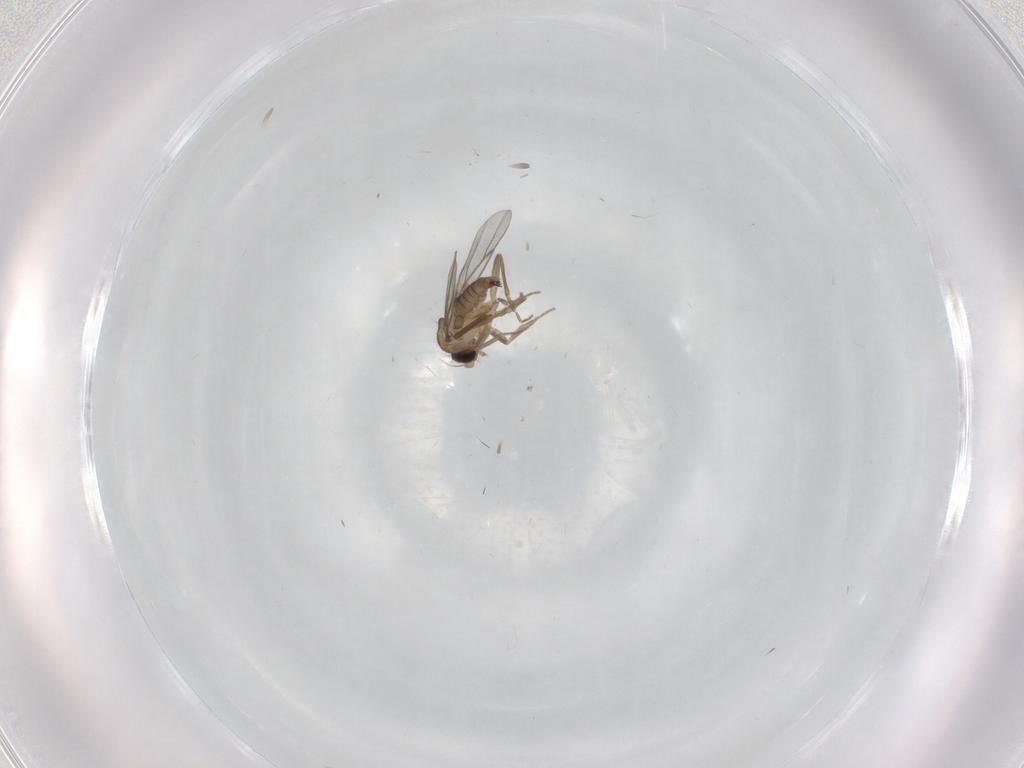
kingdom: Animalia
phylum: Arthropoda
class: Insecta
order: Diptera
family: Cecidomyiidae
